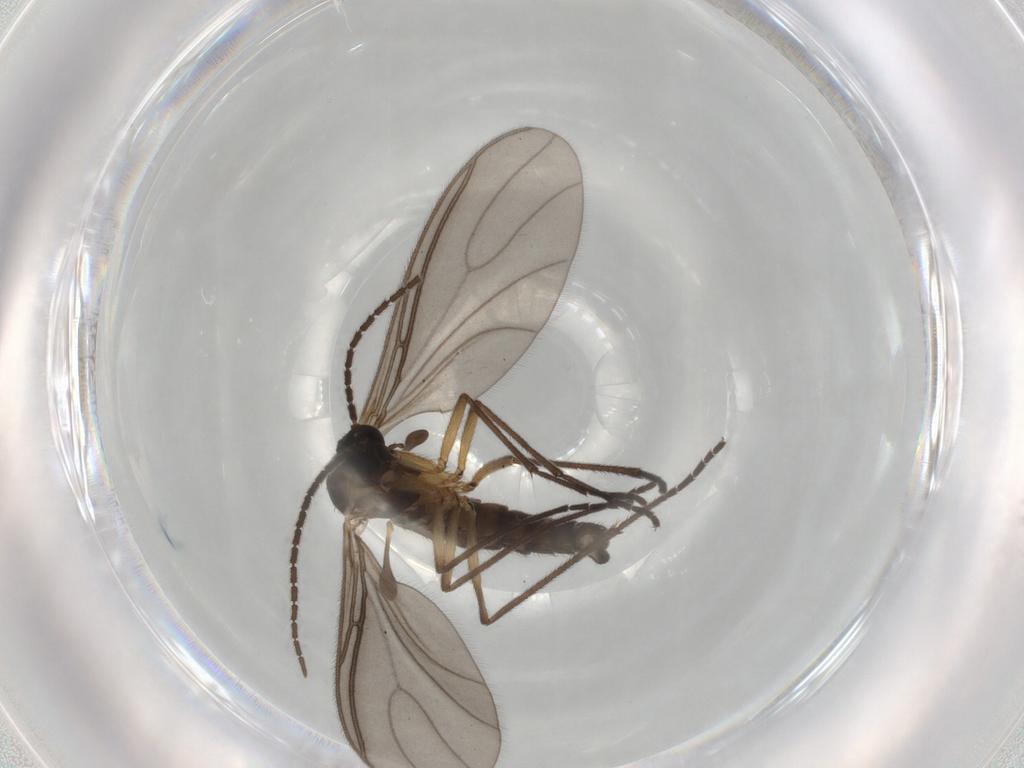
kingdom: Animalia
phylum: Arthropoda
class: Insecta
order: Diptera
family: Sciaridae
